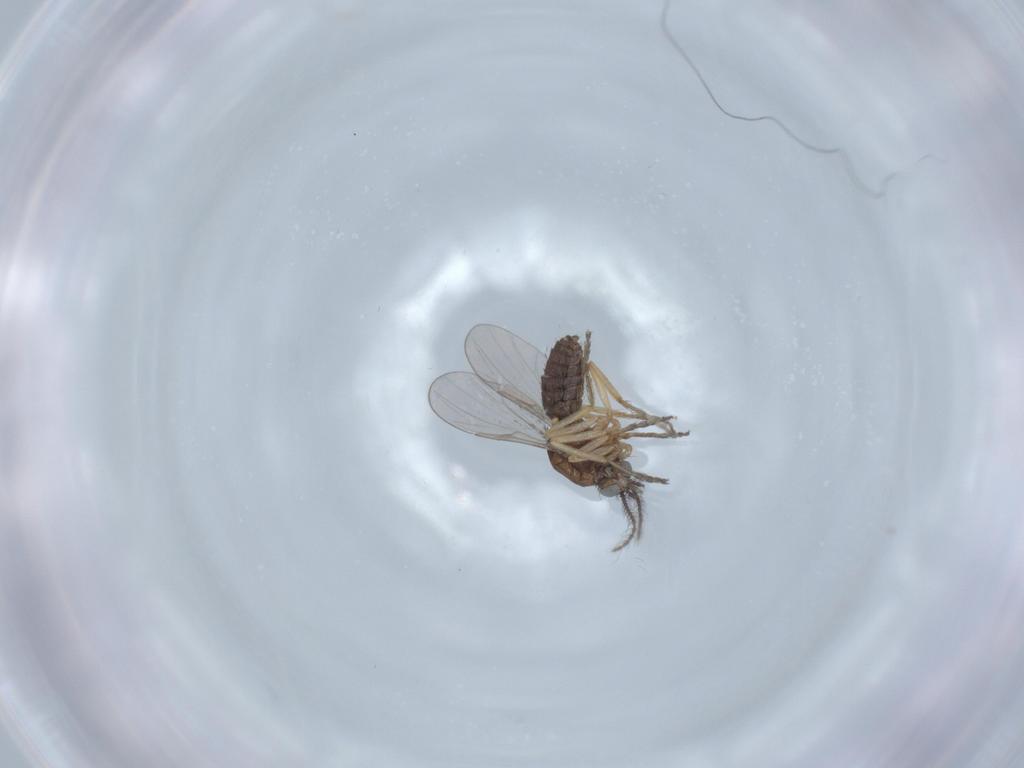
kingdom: Animalia
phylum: Arthropoda
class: Insecta
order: Diptera
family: Ceratopogonidae
